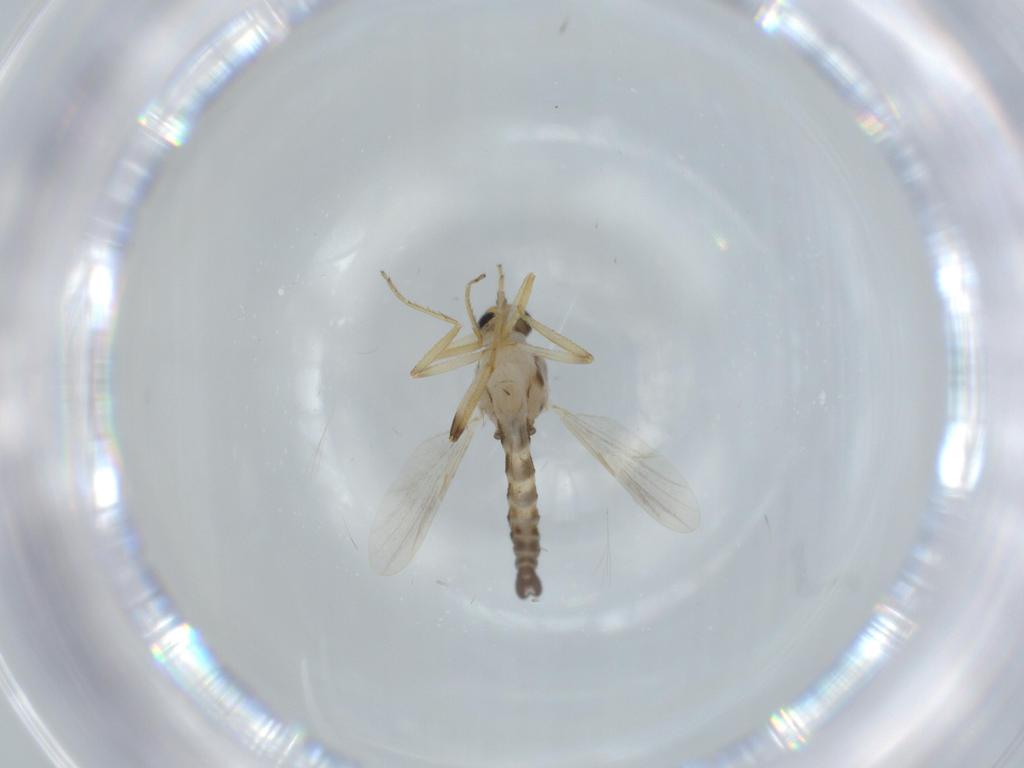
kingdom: Animalia
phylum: Arthropoda
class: Insecta
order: Diptera
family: Ceratopogonidae
